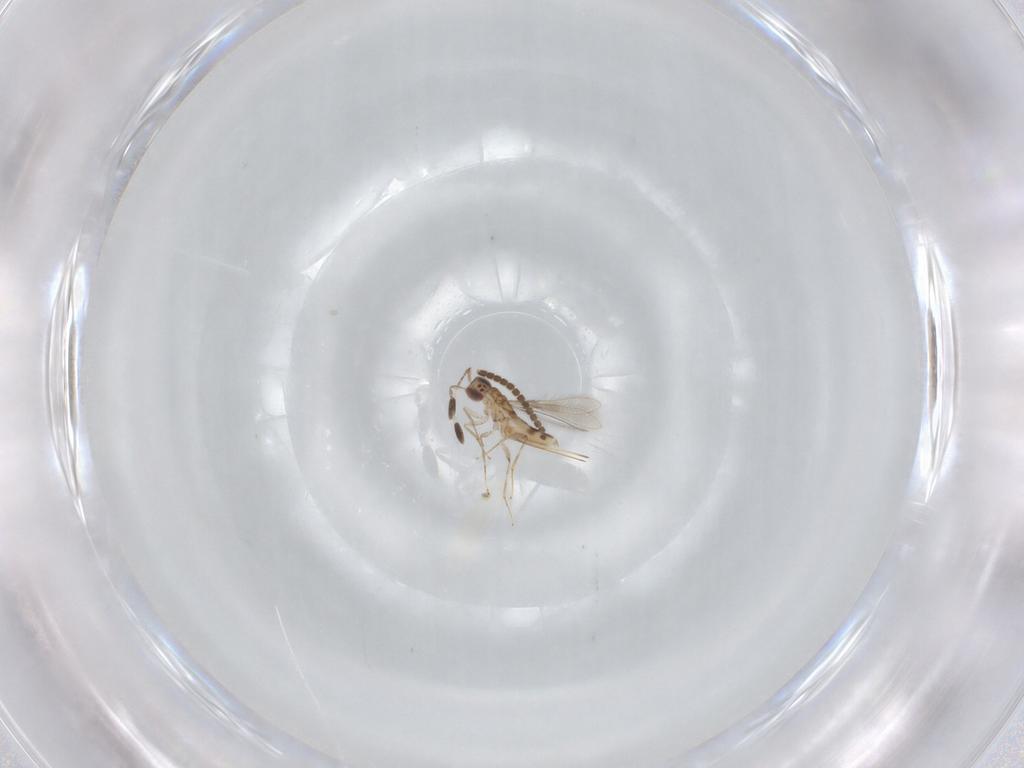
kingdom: Animalia
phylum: Arthropoda
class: Insecta
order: Hymenoptera
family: Mymaridae
